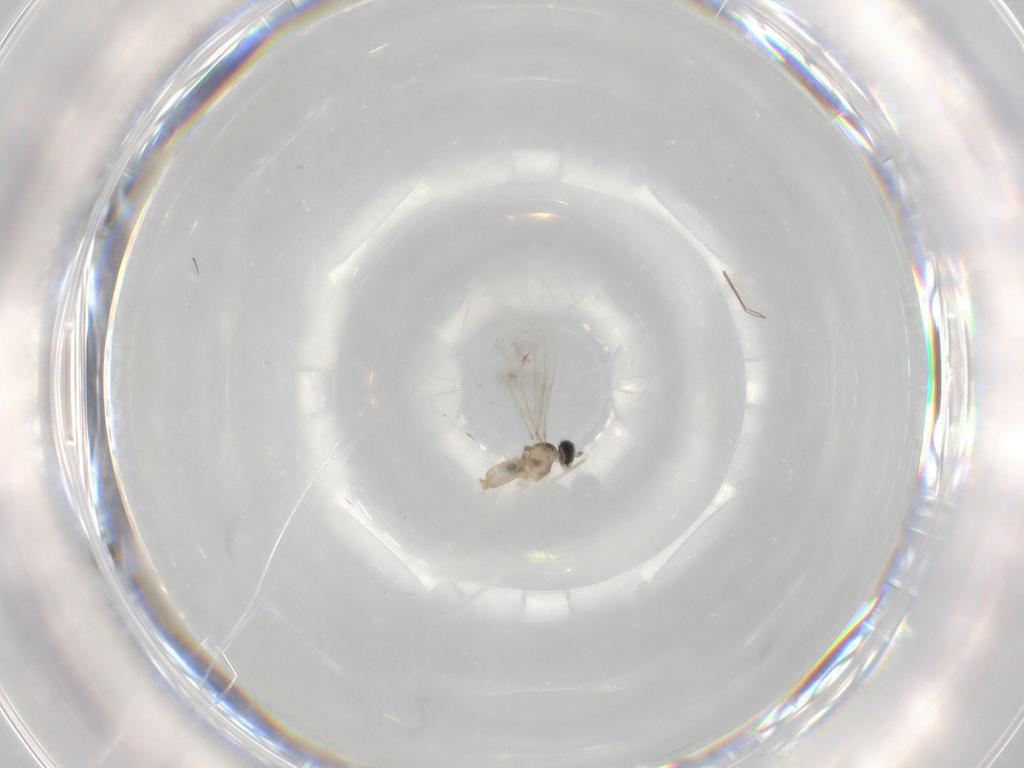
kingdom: Animalia
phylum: Arthropoda
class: Insecta
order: Diptera
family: Cecidomyiidae
